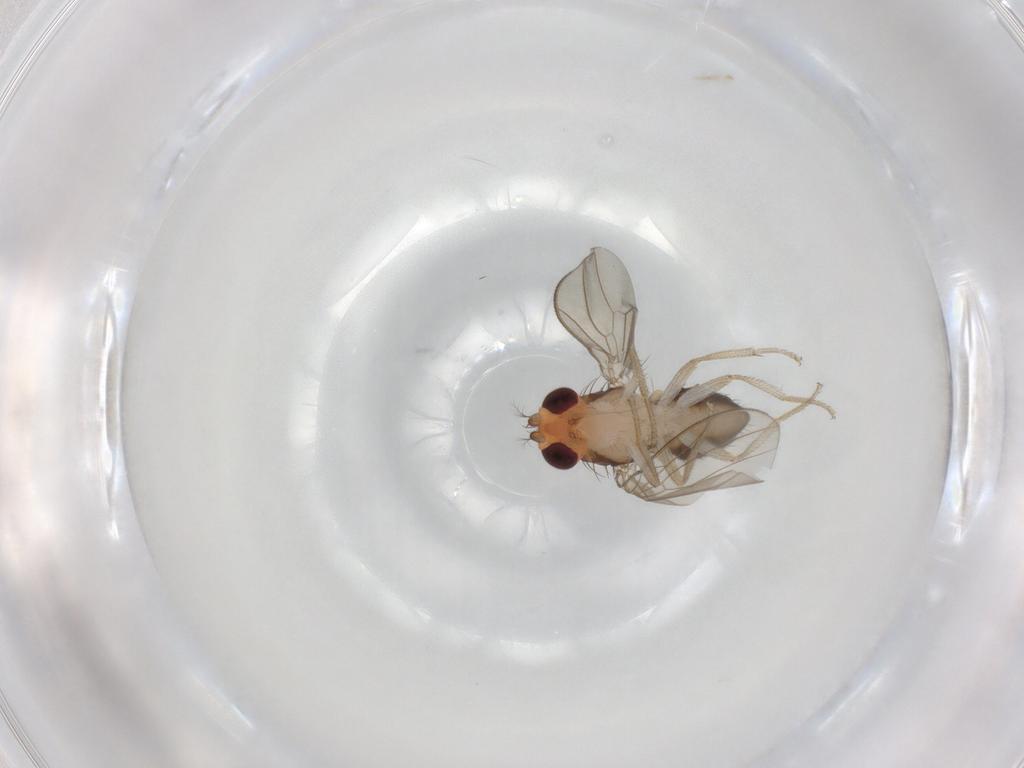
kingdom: Animalia
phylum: Arthropoda
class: Insecta
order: Diptera
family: Drosophilidae
